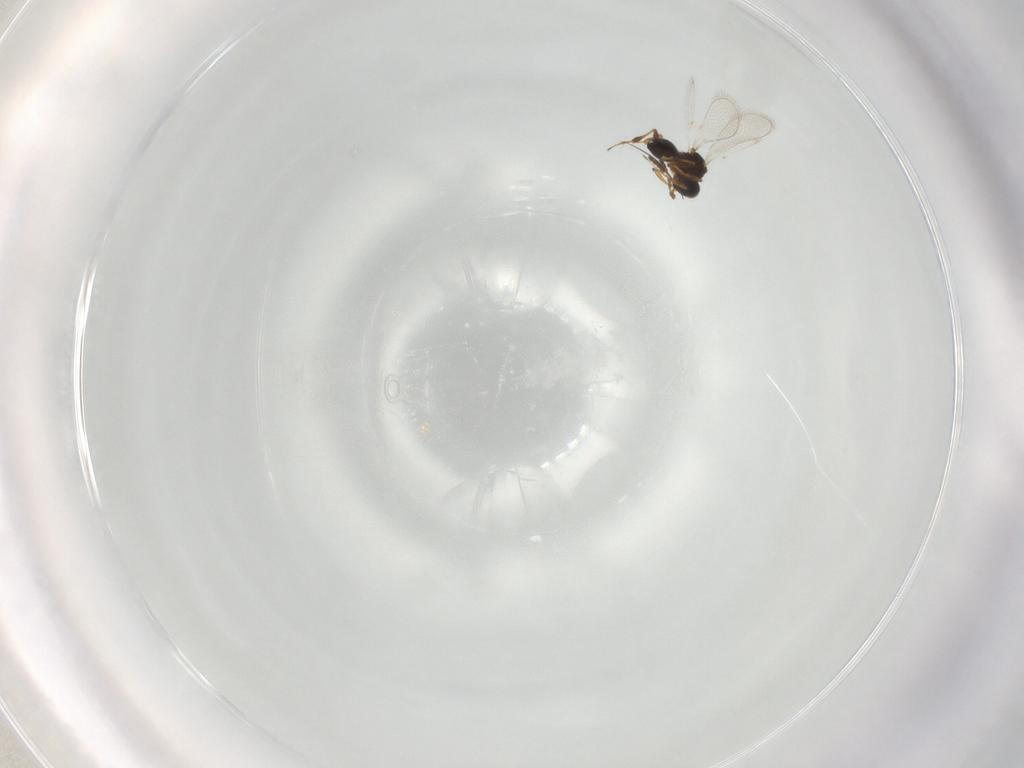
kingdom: Animalia
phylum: Arthropoda
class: Insecta
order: Hymenoptera
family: Platygastridae
